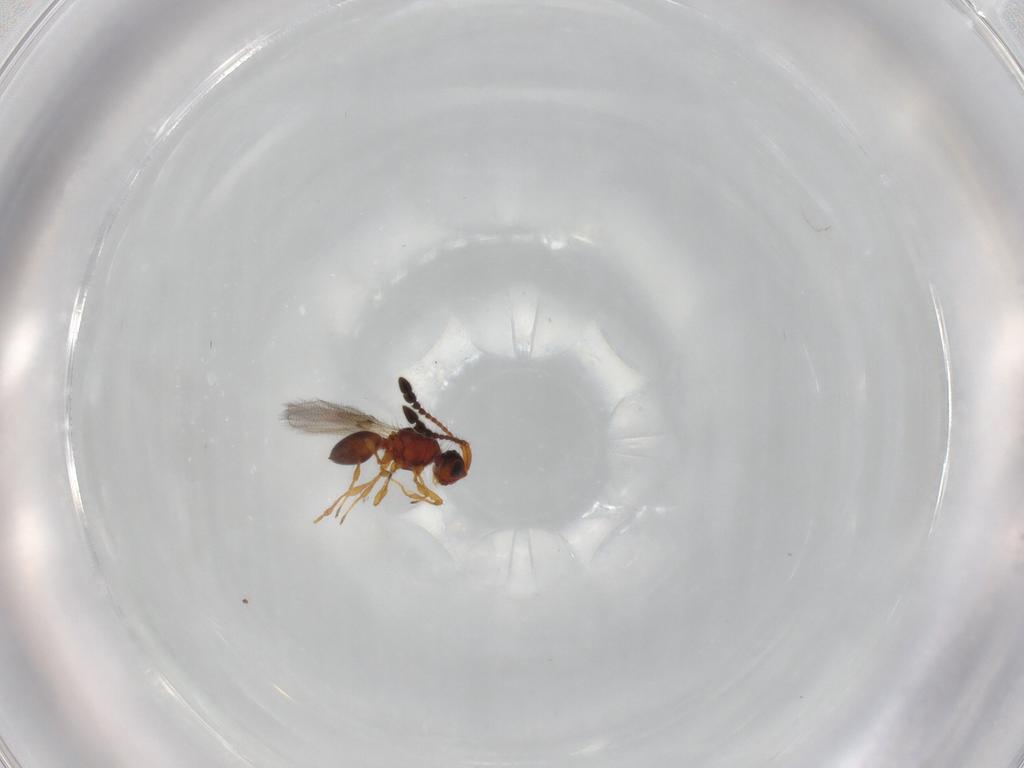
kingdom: Animalia
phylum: Arthropoda
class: Insecta
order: Hymenoptera
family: Diapriidae
